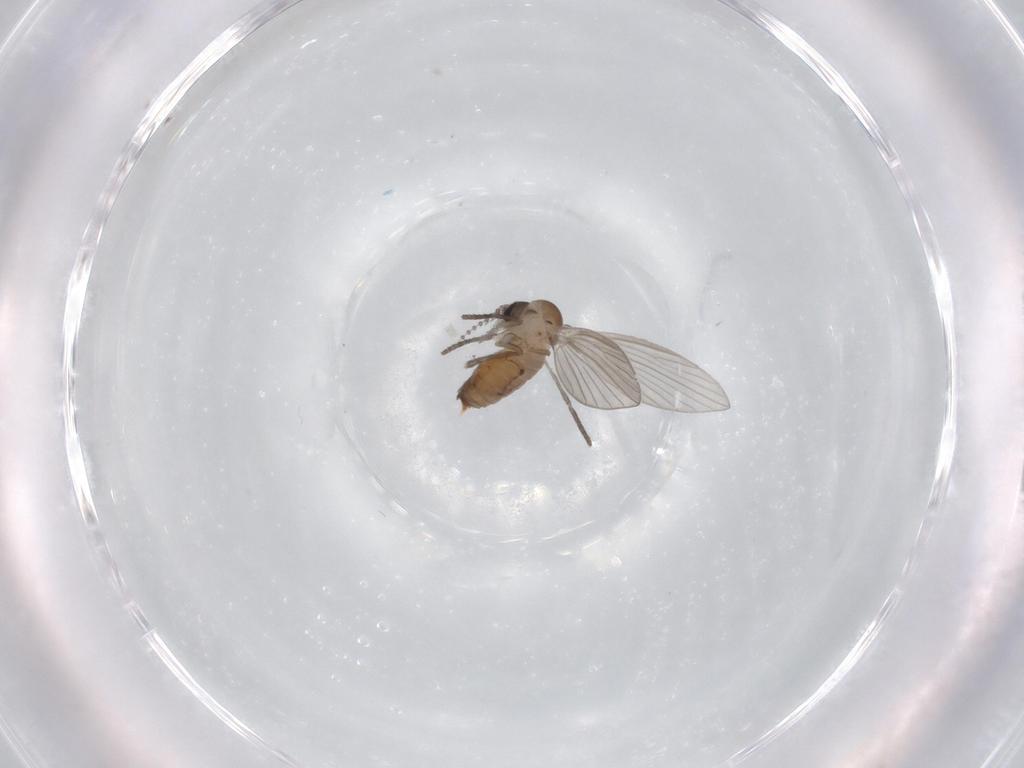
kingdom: Animalia
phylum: Arthropoda
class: Insecta
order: Diptera
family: Psychodidae
